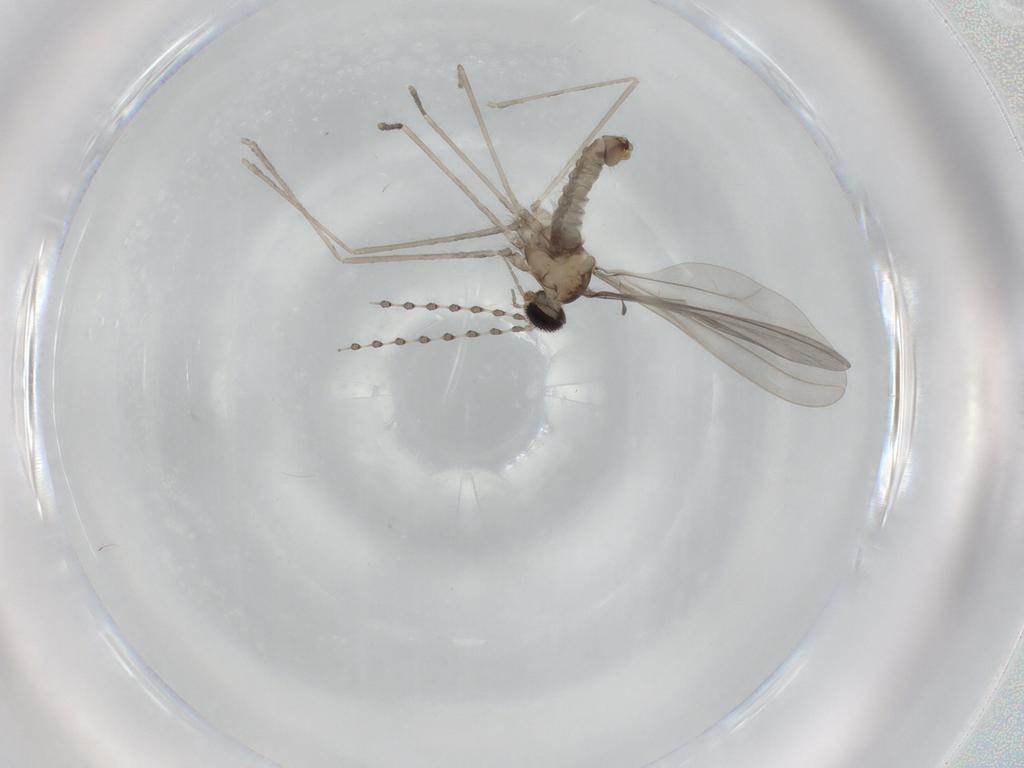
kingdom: Animalia
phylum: Arthropoda
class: Insecta
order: Diptera
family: Cecidomyiidae
